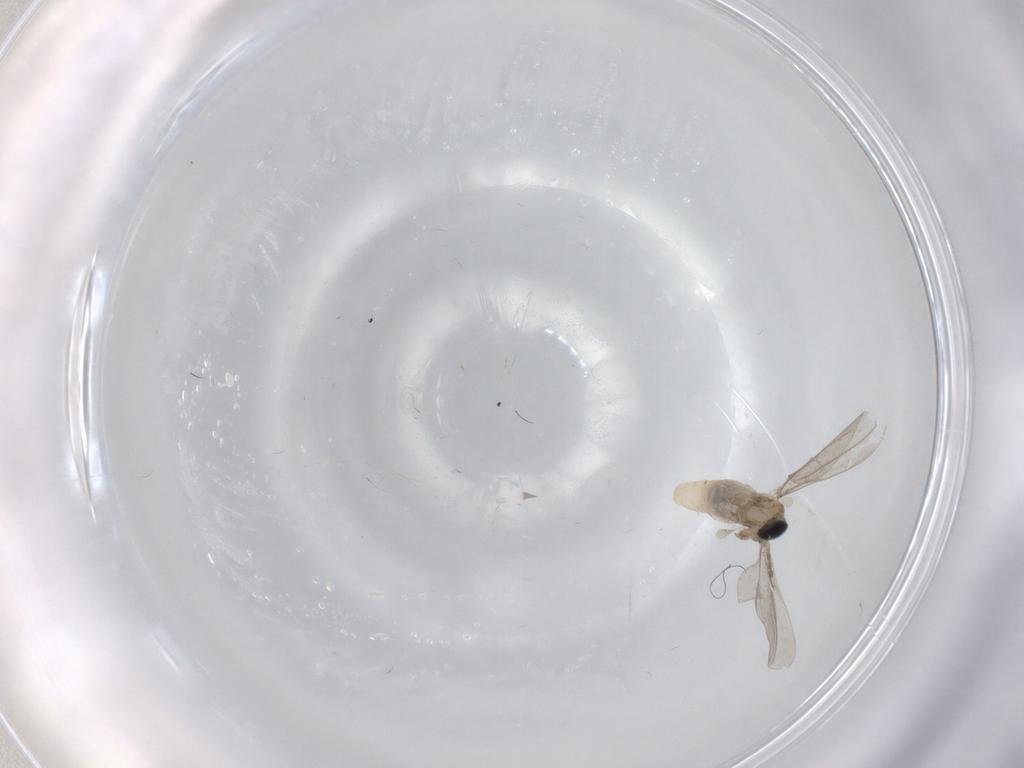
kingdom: Animalia
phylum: Arthropoda
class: Insecta
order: Diptera
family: Cecidomyiidae
